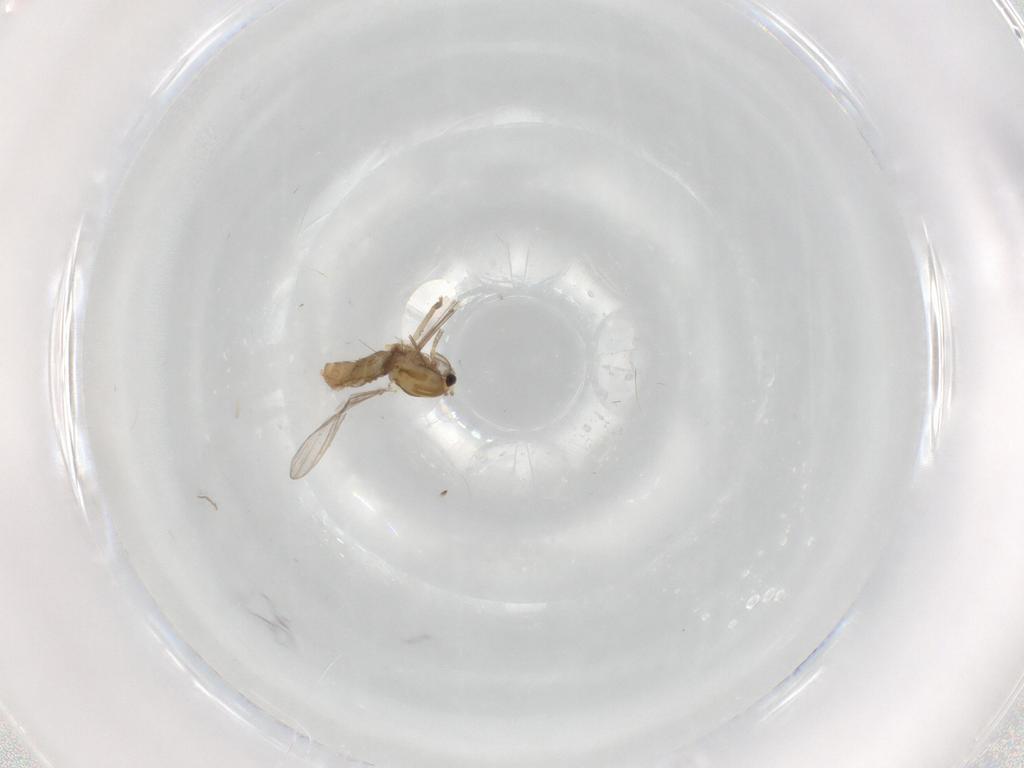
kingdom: Animalia
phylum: Arthropoda
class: Insecta
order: Diptera
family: Chironomidae
